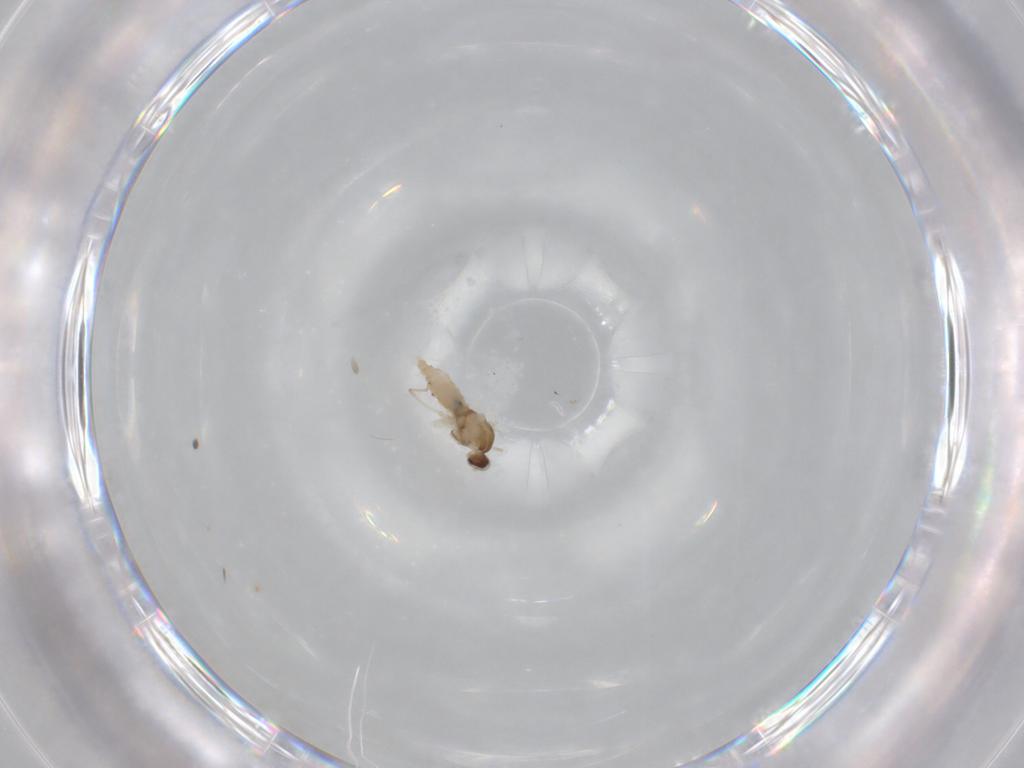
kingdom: Animalia
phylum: Arthropoda
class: Insecta
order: Diptera
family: Cecidomyiidae
